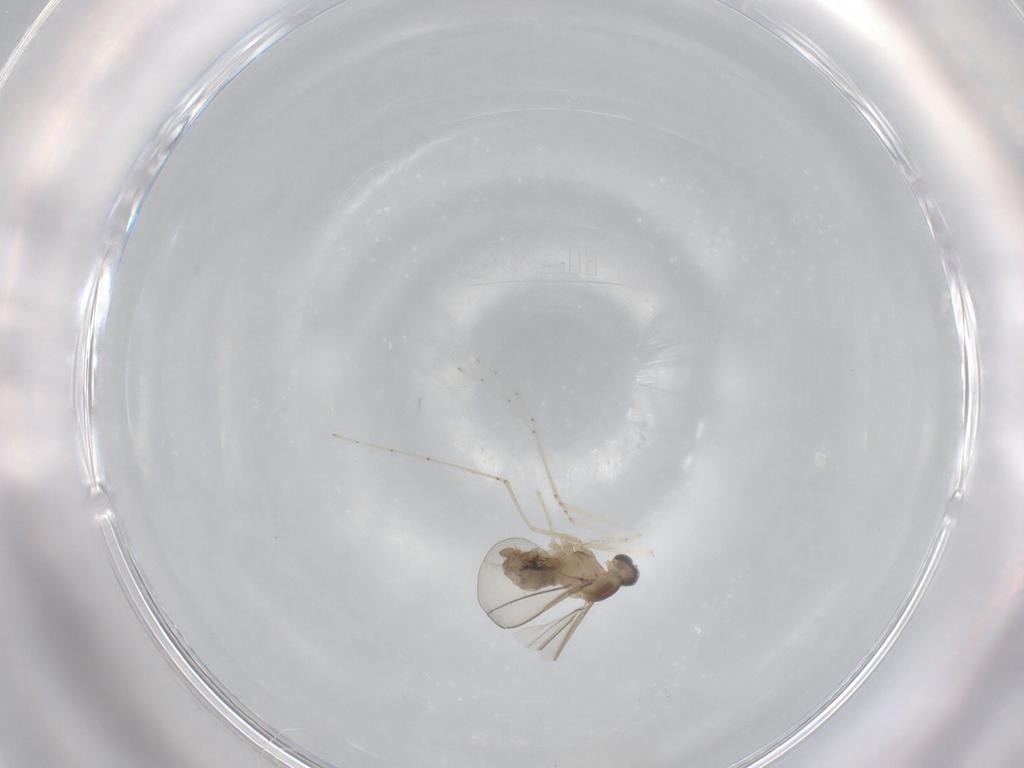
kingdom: Animalia
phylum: Arthropoda
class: Insecta
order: Diptera
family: Cecidomyiidae
